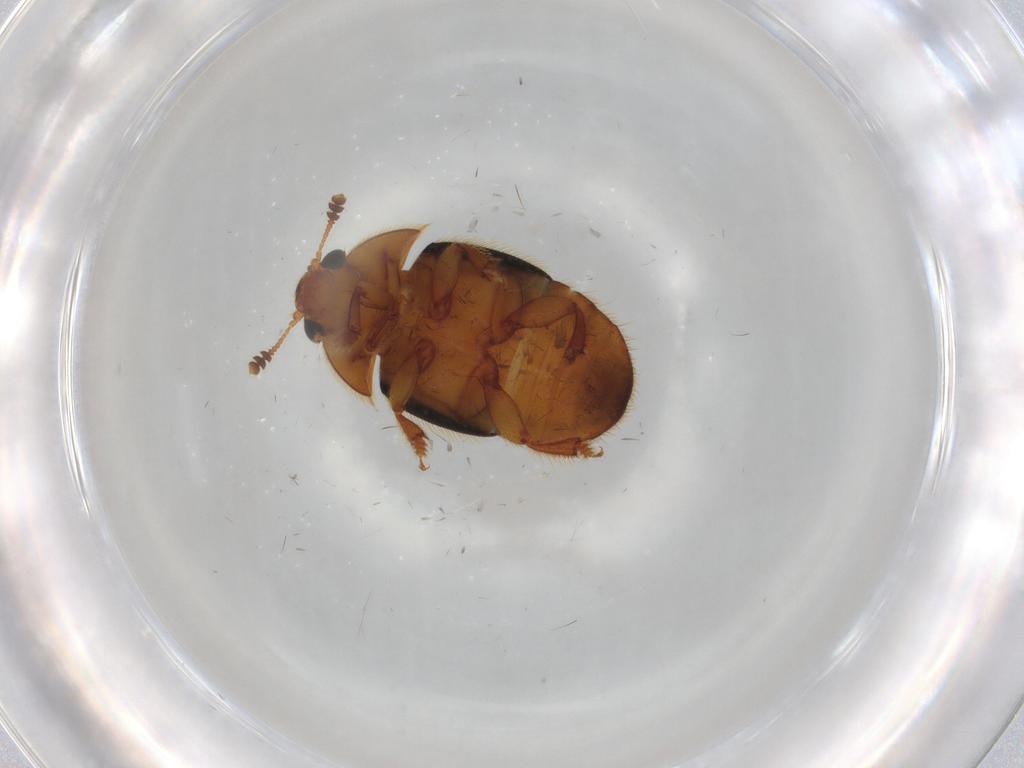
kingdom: Animalia
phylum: Arthropoda
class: Insecta
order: Coleoptera
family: Nitidulidae
